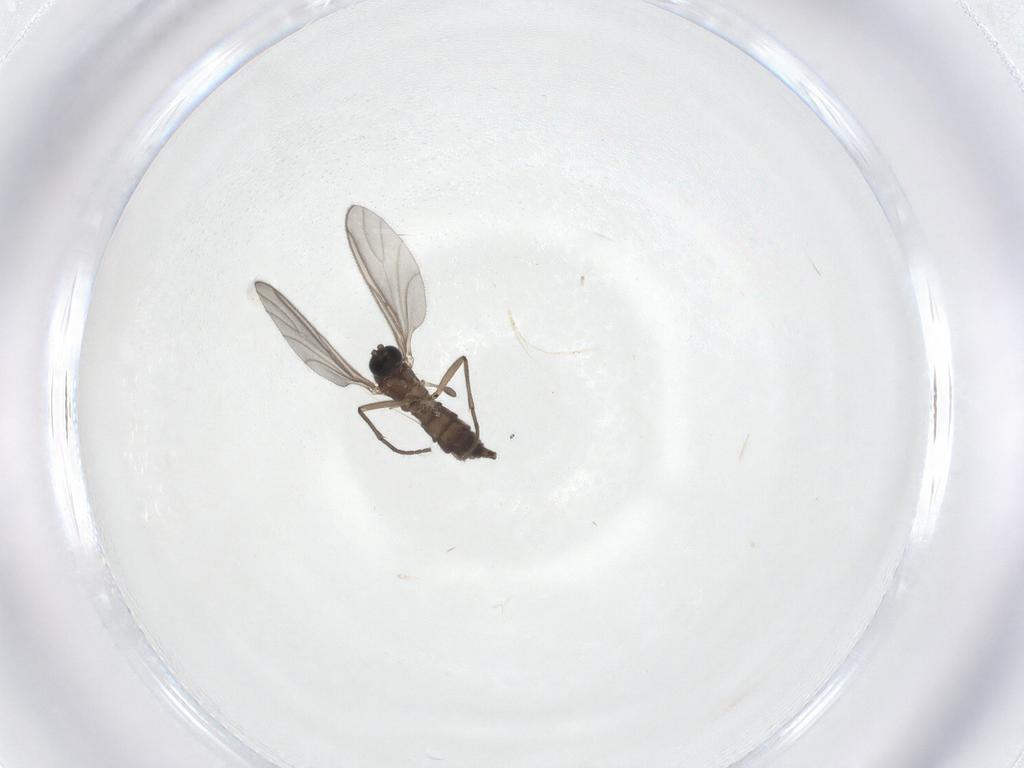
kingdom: Animalia
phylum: Arthropoda
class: Insecta
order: Diptera
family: Sciaridae
